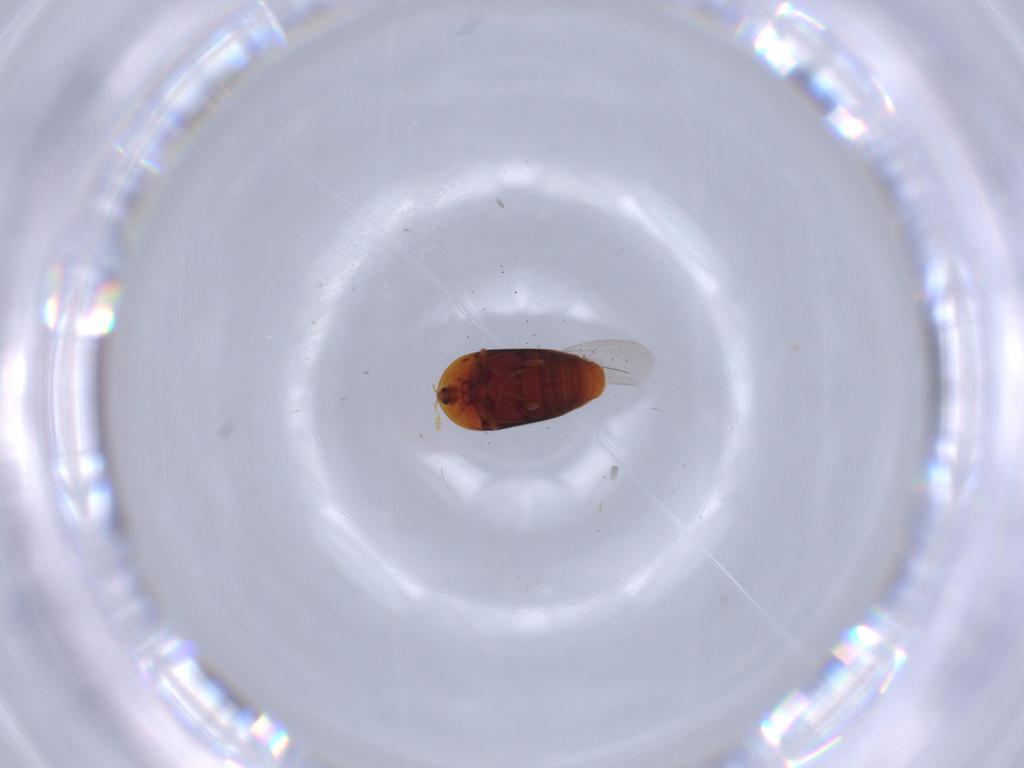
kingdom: Animalia
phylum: Arthropoda
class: Insecta
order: Coleoptera
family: Corylophidae
